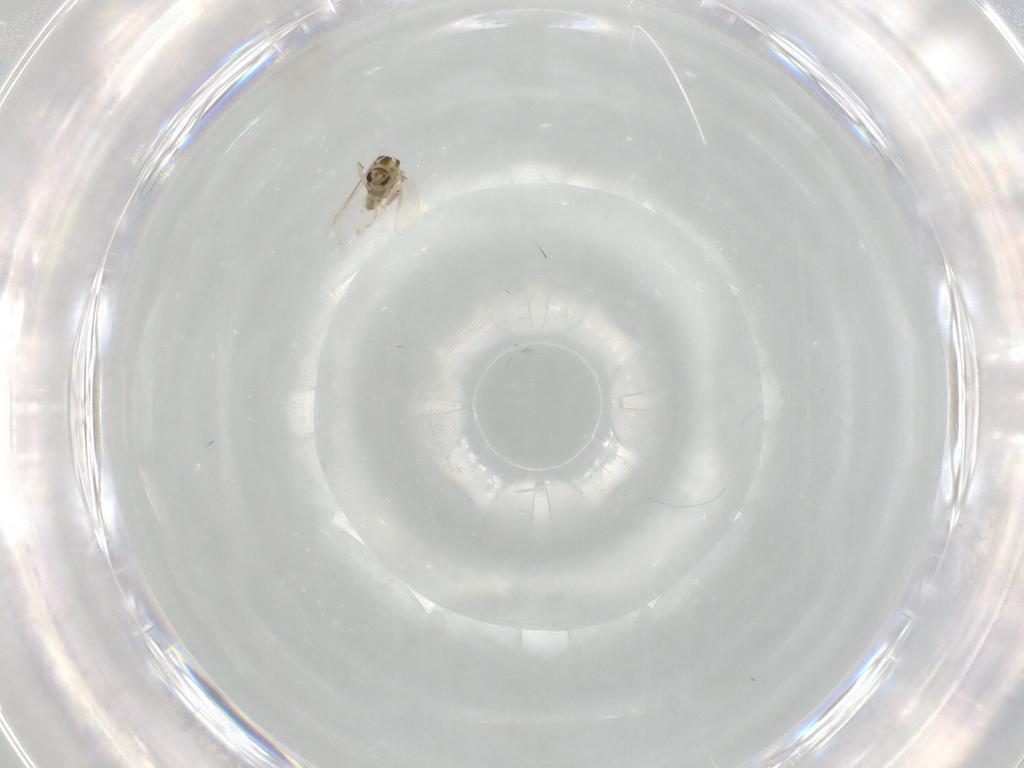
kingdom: Animalia
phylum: Arthropoda
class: Insecta
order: Diptera
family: Chironomidae
